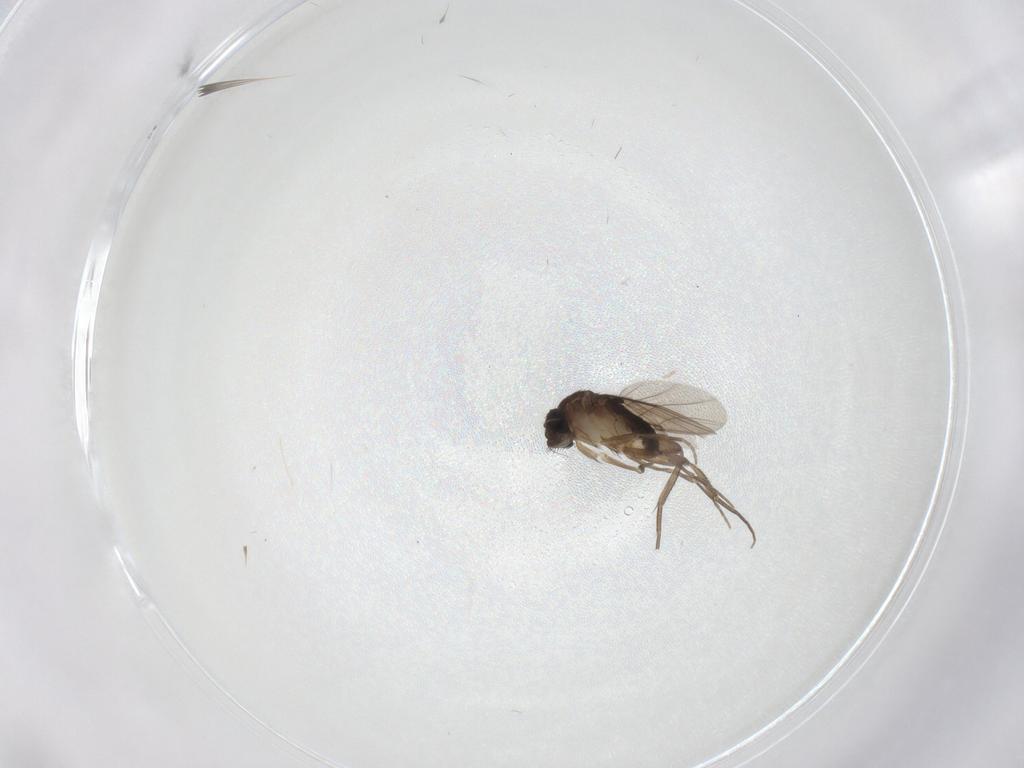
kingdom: Animalia
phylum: Arthropoda
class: Insecta
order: Diptera
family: Phoridae
